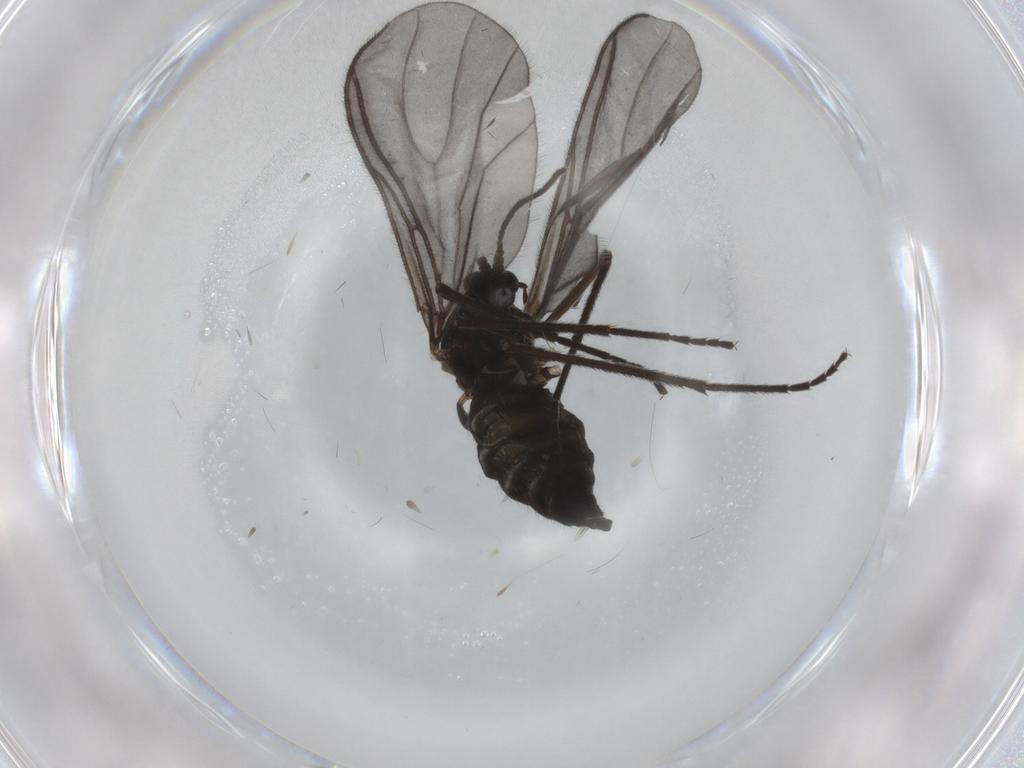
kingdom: Animalia
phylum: Arthropoda
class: Insecta
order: Diptera
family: Sciaridae
